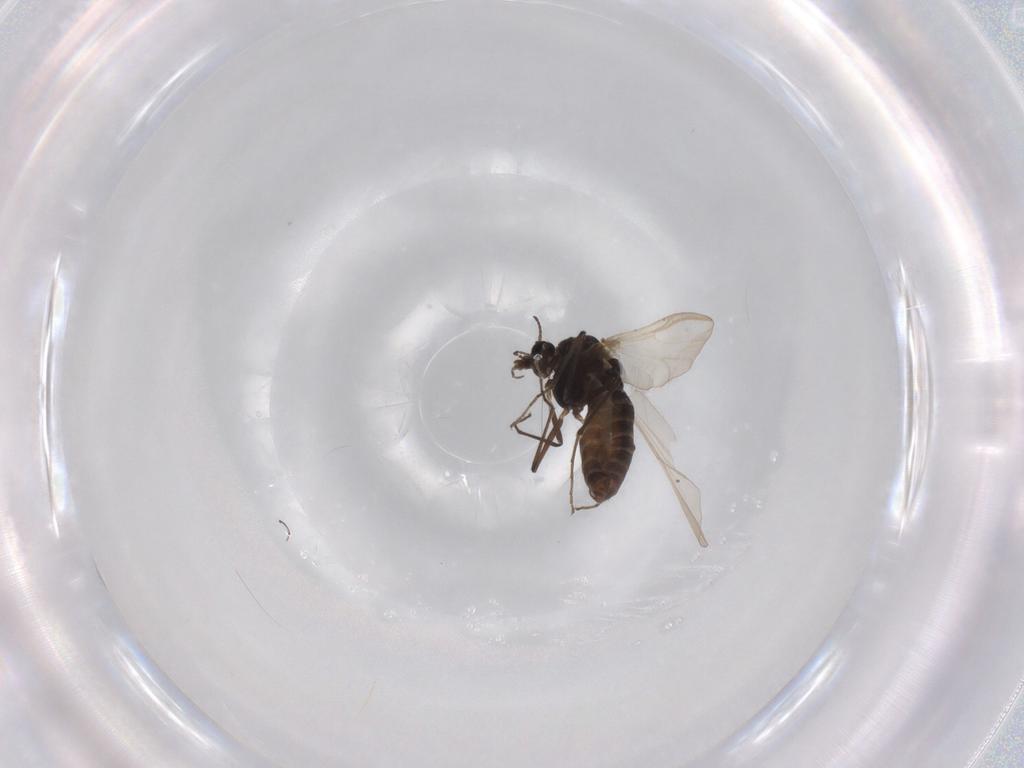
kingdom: Animalia
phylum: Arthropoda
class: Insecta
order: Diptera
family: Chironomidae
